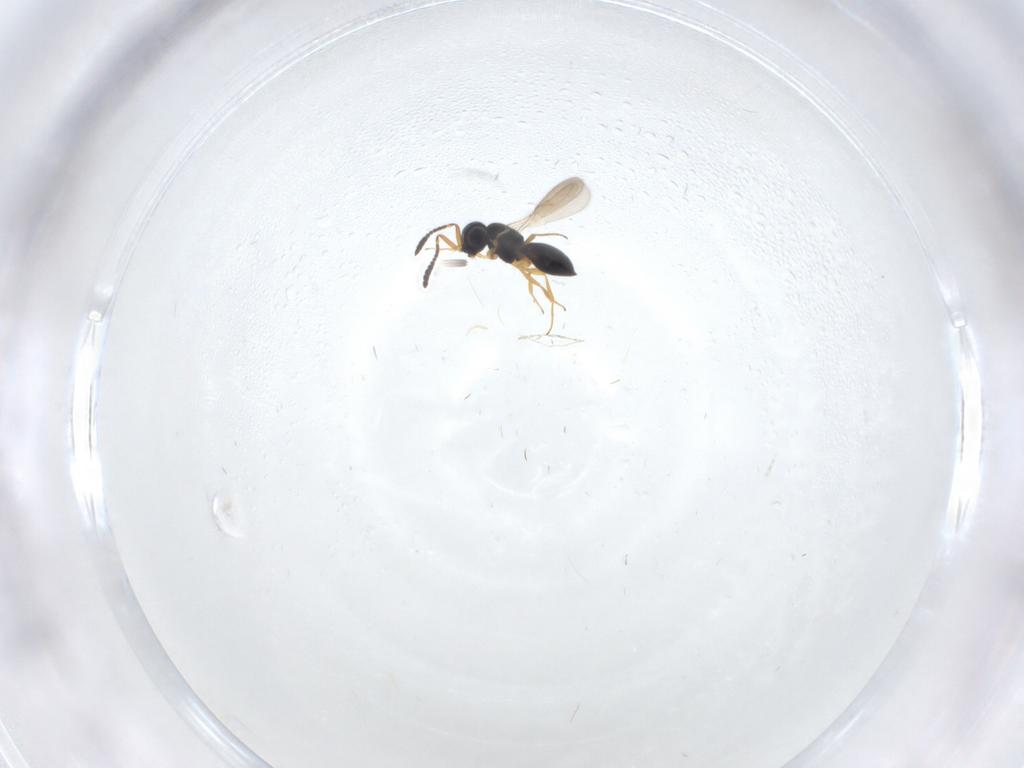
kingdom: Animalia
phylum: Arthropoda
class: Insecta
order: Hymenoptera
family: Scelionidae
